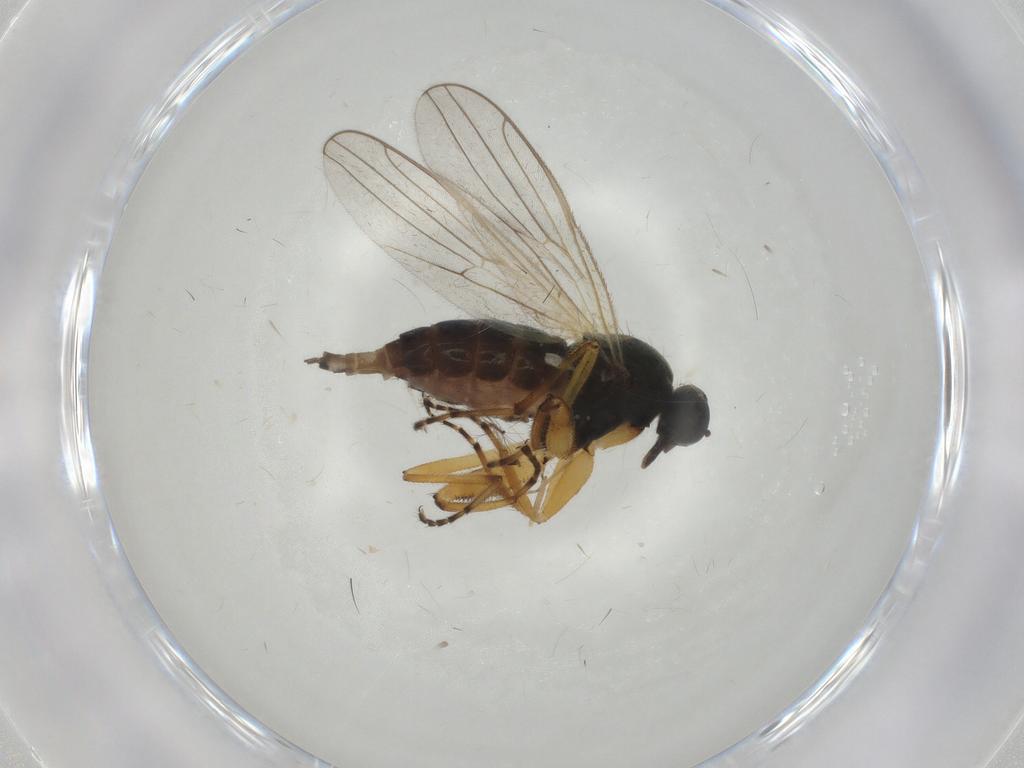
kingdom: Animalia
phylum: Arthropoda
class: Insecta
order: Diptera
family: Hybotidae
